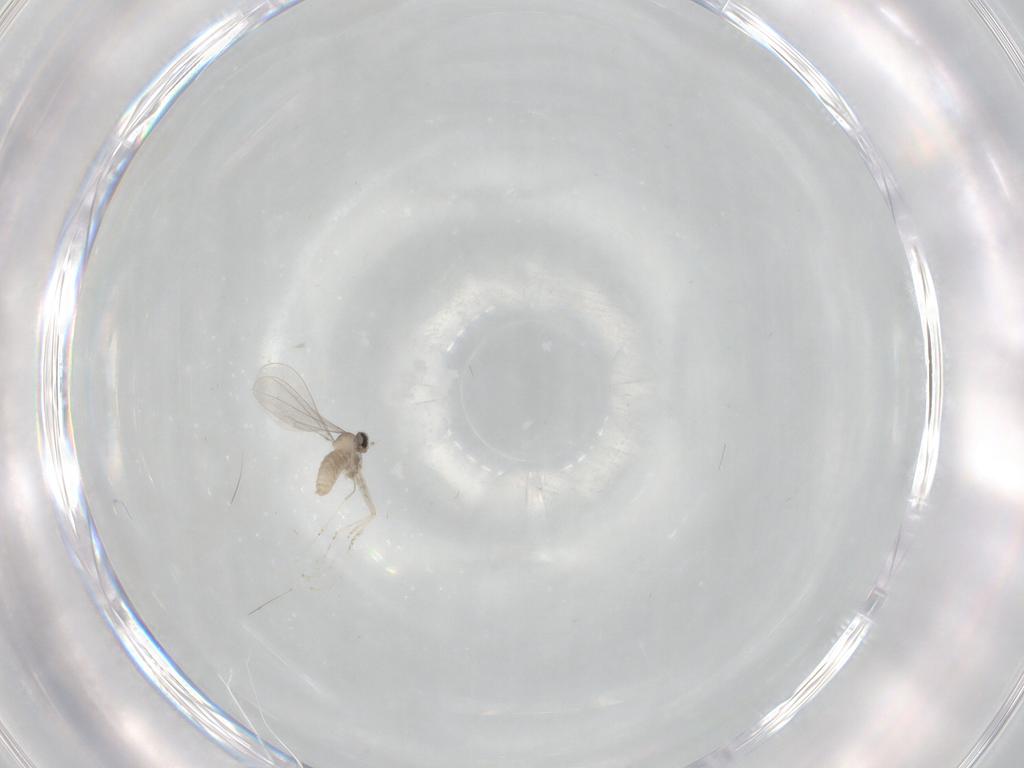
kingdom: Animalia
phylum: Arthropoda
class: Insecta
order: Diptera
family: Cecidomyiidae
